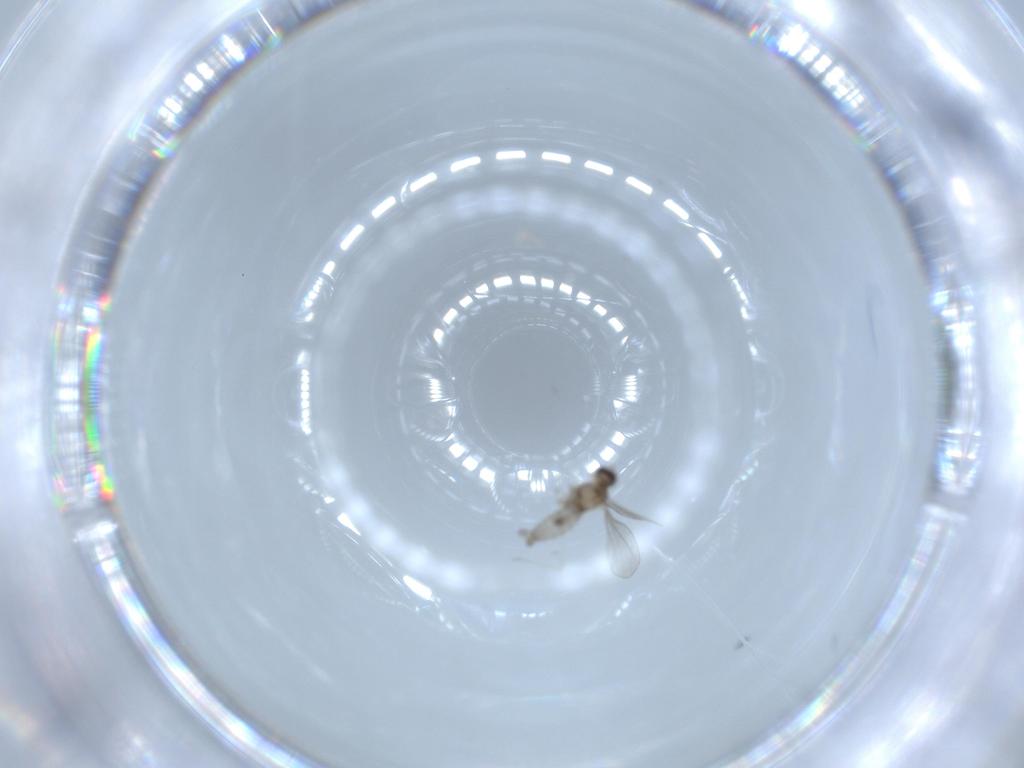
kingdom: Animalia
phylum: Arthropoda
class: Insecta
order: Diptera
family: Cecidomyiidae
